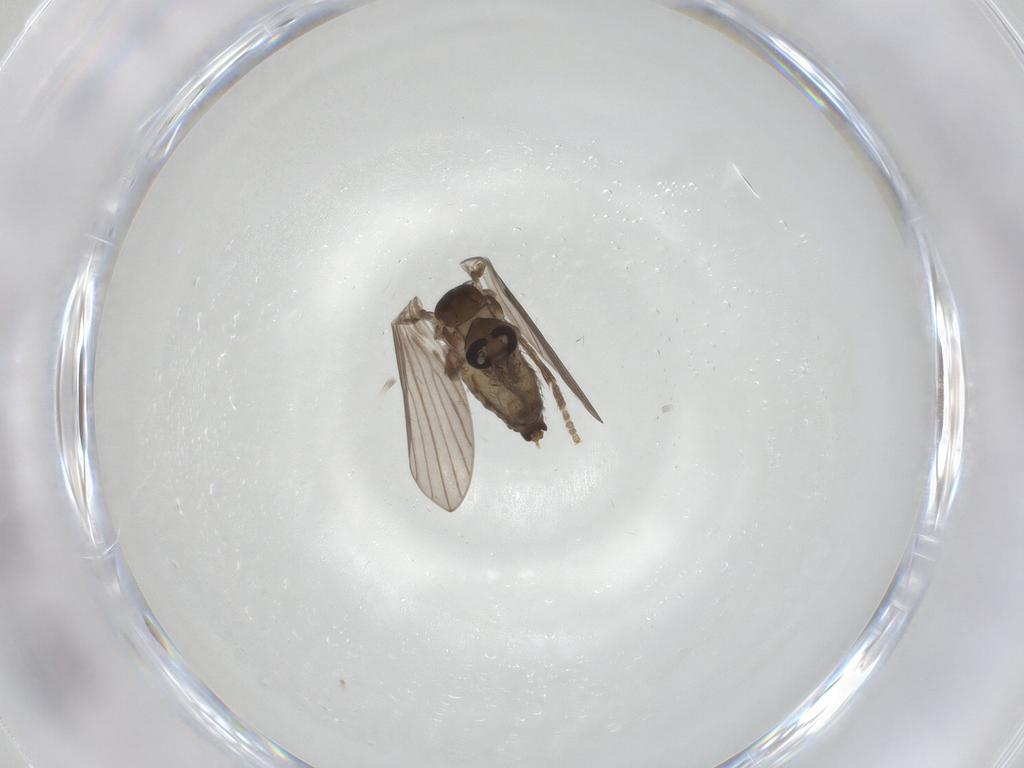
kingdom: Animalia
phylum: Arthropoda
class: Insecta
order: Diptera
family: Psychodidae
